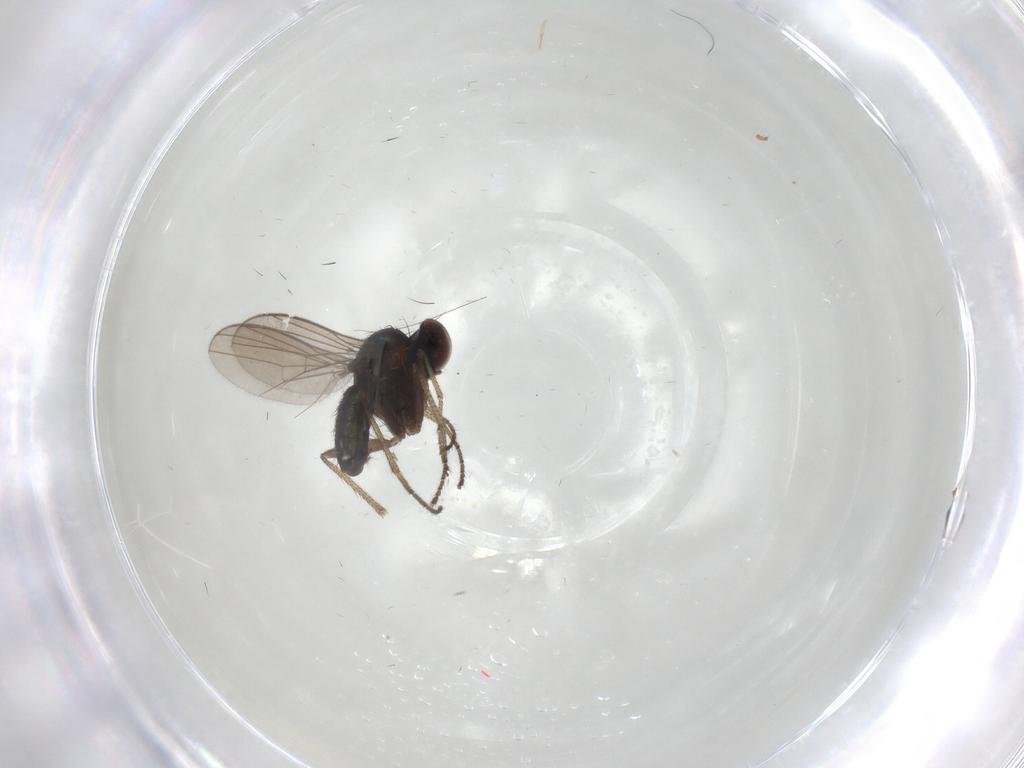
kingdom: Animalia
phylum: Arthropoda
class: Insecta
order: Diptera
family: Dolichopodidae
